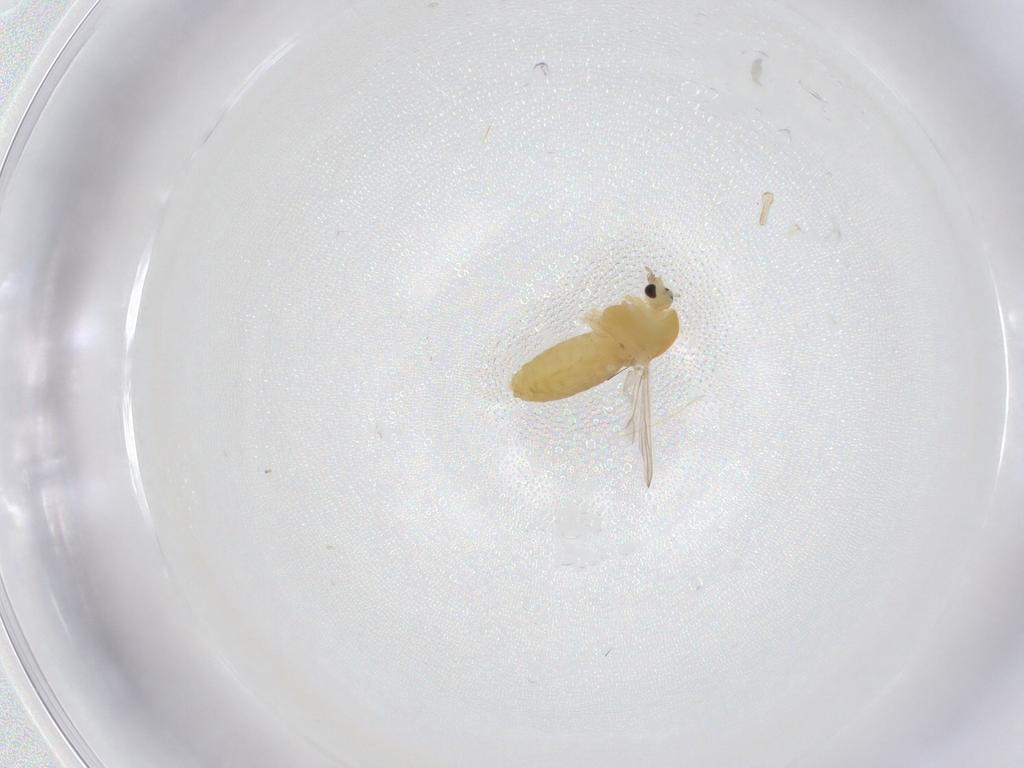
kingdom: Animalia
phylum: Arthropoda
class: Insecta
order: Diptera
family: Chironomidae
